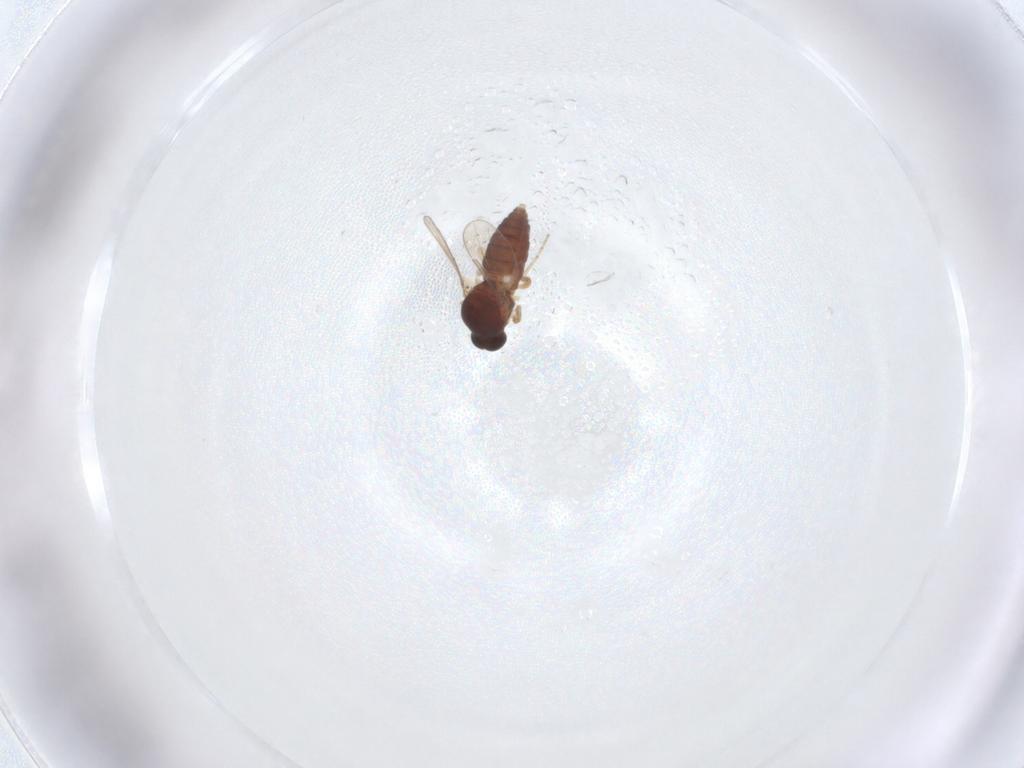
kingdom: Animalia
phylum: Arthropoda
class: Insecta
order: Diptera
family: Ceratopogonidae
